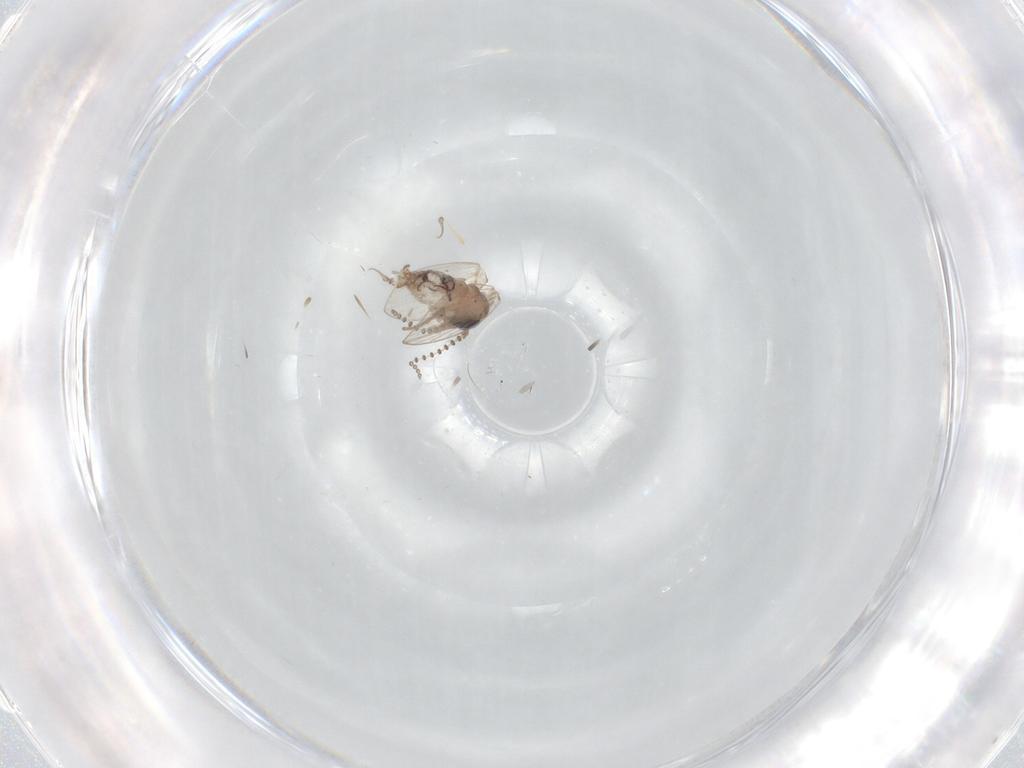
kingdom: Animalia
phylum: Arthropoda
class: Insecta
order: Diptera
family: Psychodidae
